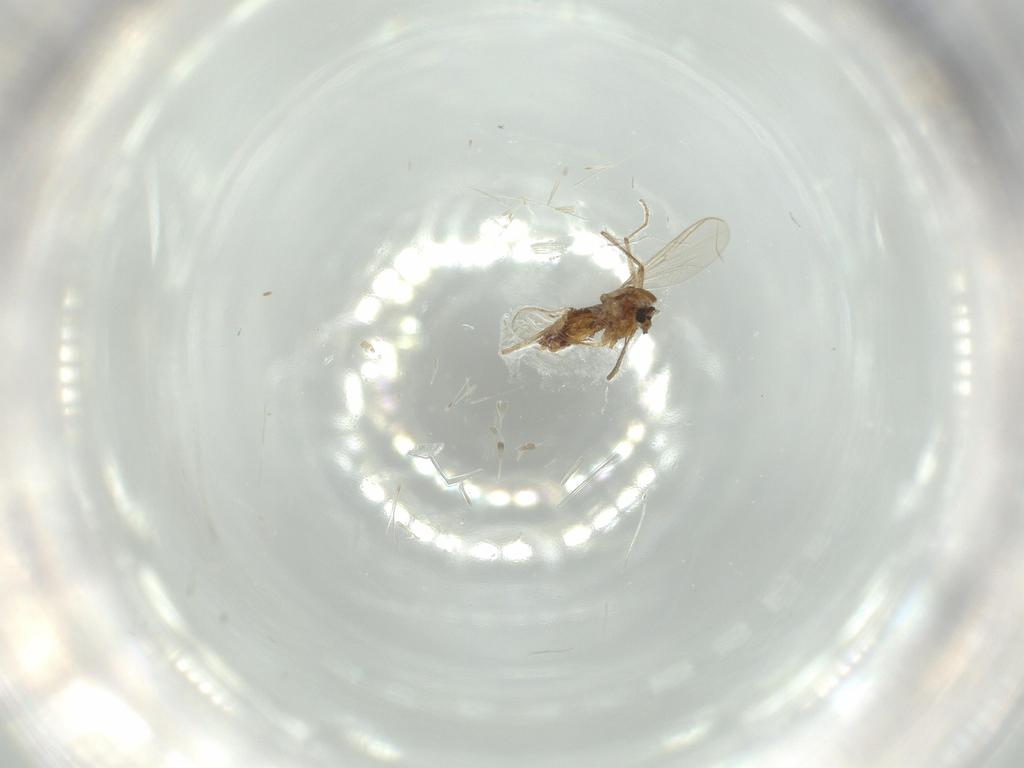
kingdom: Animalia
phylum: Arthropoda
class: Insecta
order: Diptera
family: Chironomidae
